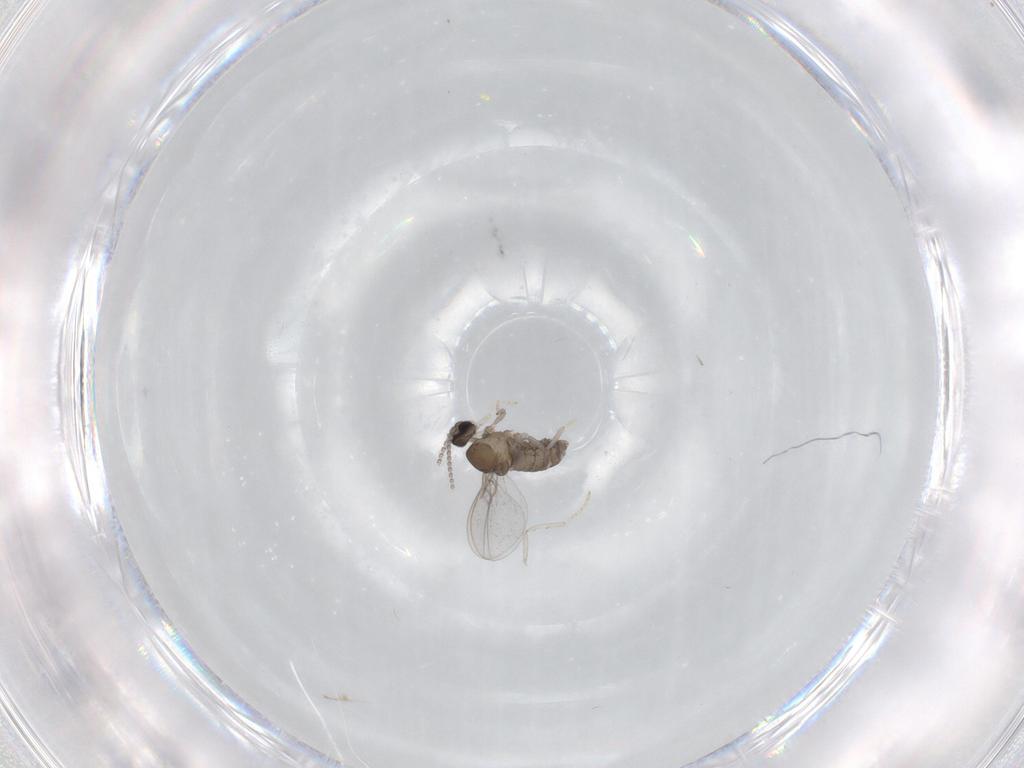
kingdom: Animalia
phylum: Arthropoda
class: Insecta
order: Diptera
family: Cecidomyiidae
